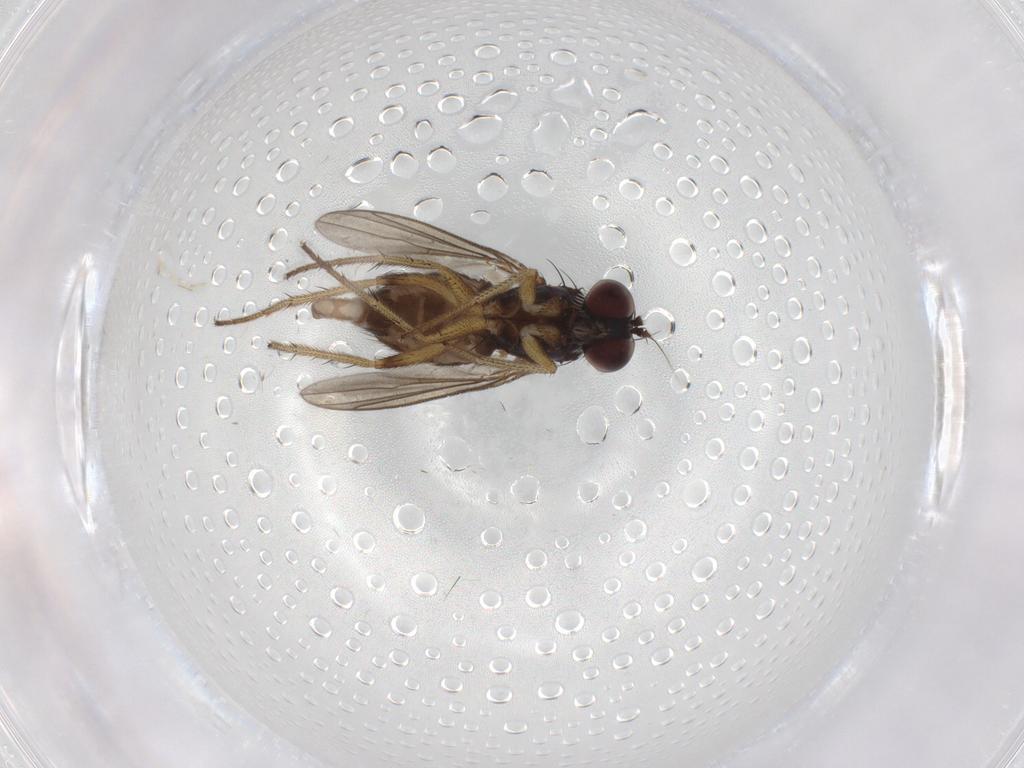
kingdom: Animalia
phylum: Arthropoda
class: Insecta
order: Diptera
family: Dolichopodidae
